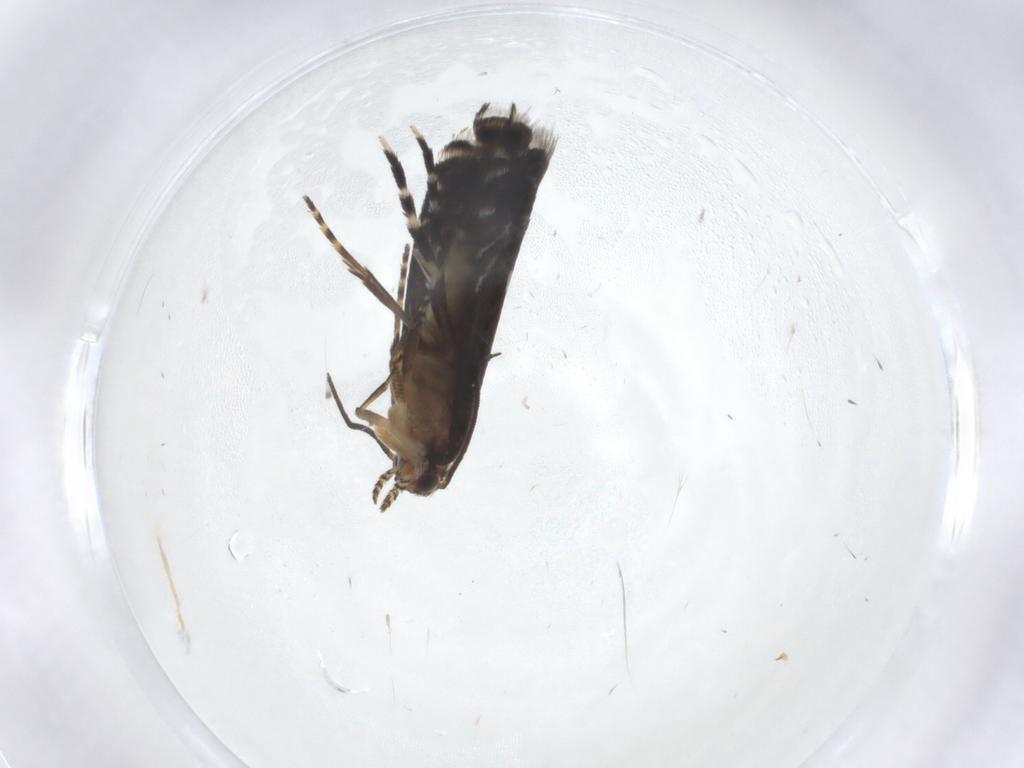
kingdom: Animalia
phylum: Arthropoda
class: Insecta
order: Lepidoptera
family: Glyphipterigidae
